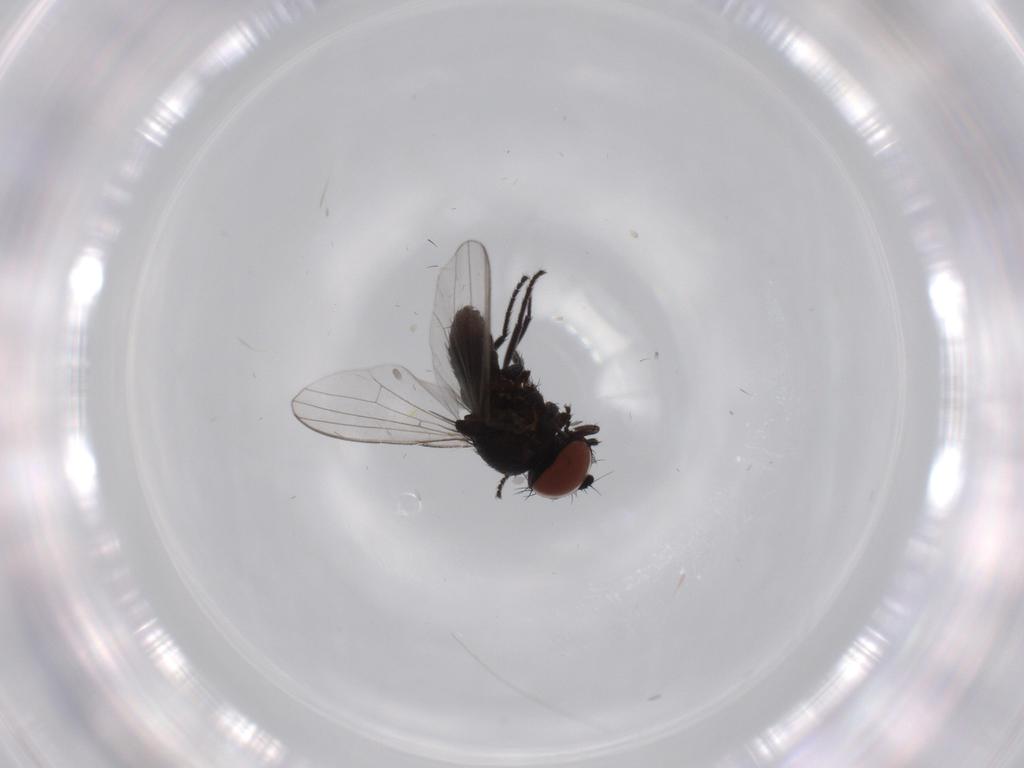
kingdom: Animalia
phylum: Arthropoda
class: Insecta
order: Diptera
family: Milichiidae
